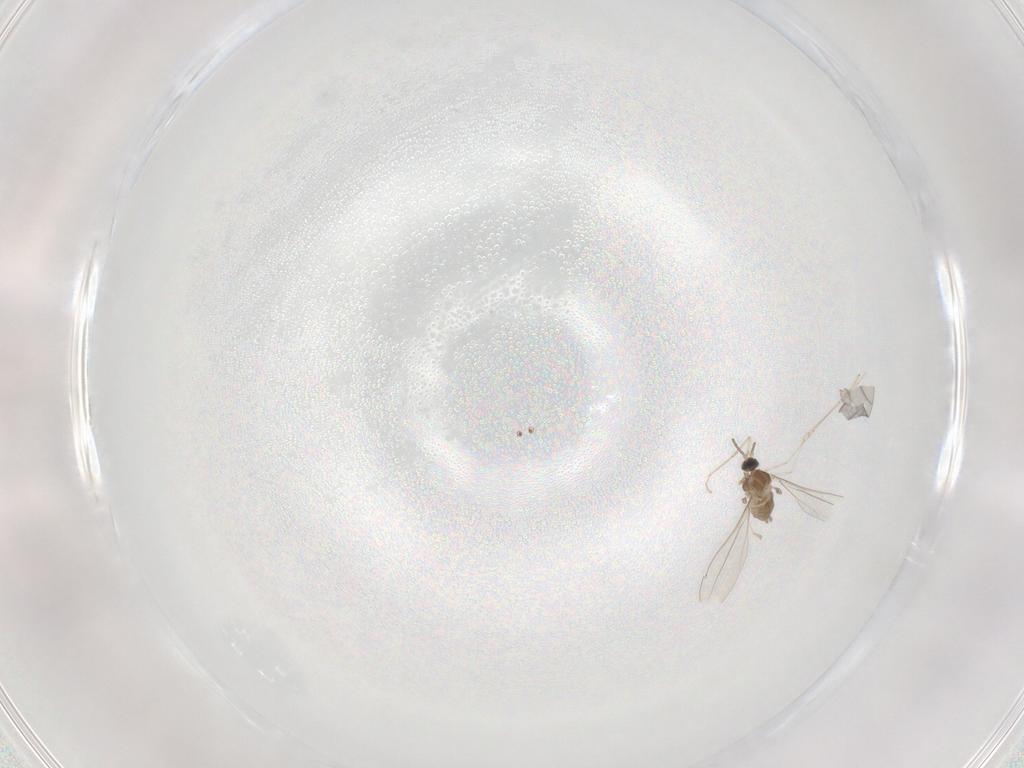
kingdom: Animalia
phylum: Arthropoda
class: Insecta
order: Diptera
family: Cecidomyiidae
